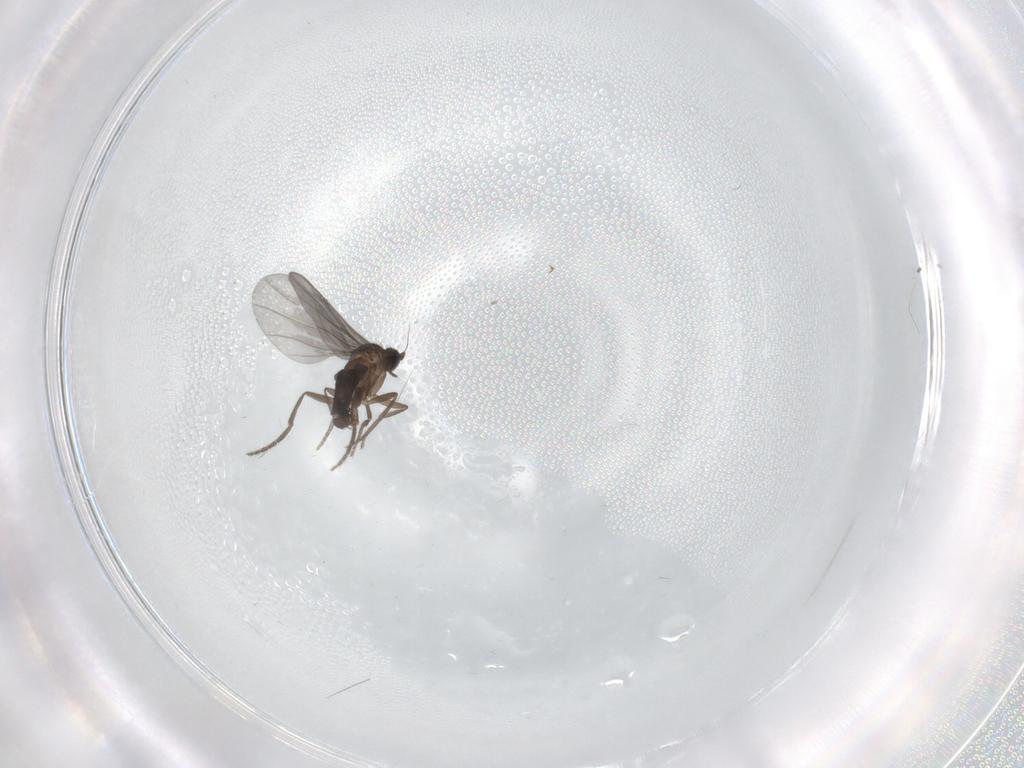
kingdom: Animalia
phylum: Arthropoda
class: Insecta
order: Diptera
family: Phoridae
